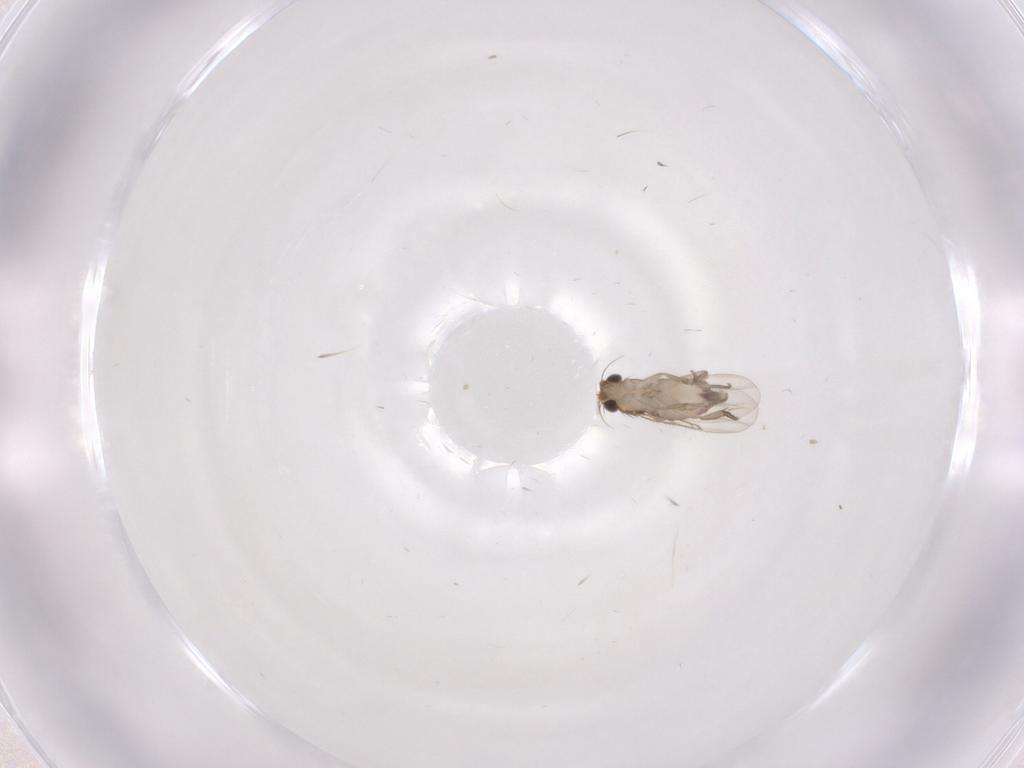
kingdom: Animalia
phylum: Arthropoda
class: Insecta
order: Diptera
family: Phoridae
